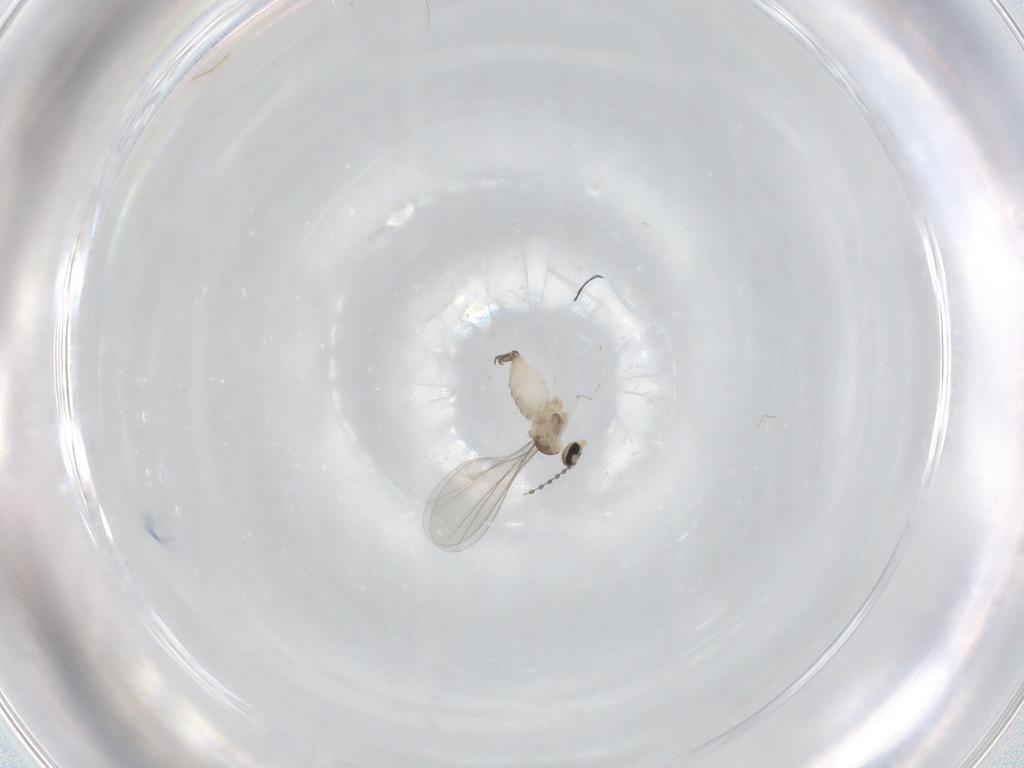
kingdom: Animalia
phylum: Arthropoda
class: Insecta
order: Diptera
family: Cecidomyiidae
